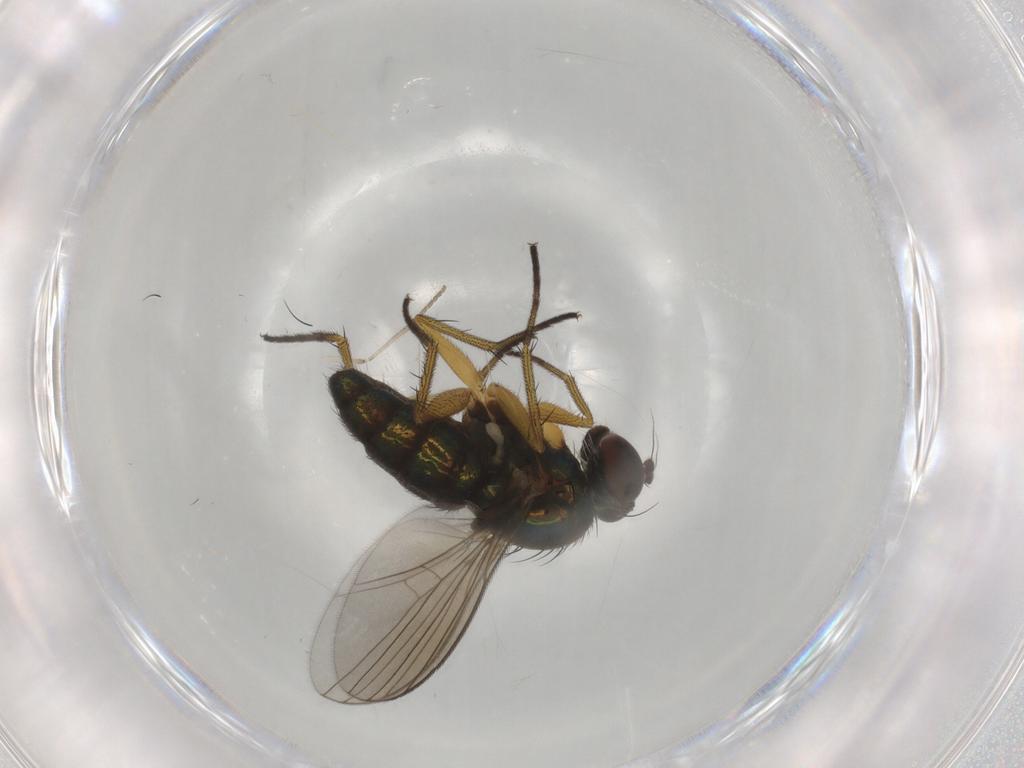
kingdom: Animalia
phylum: Arthropoda
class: Insecta
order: Diptera
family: Dolichopodidae
